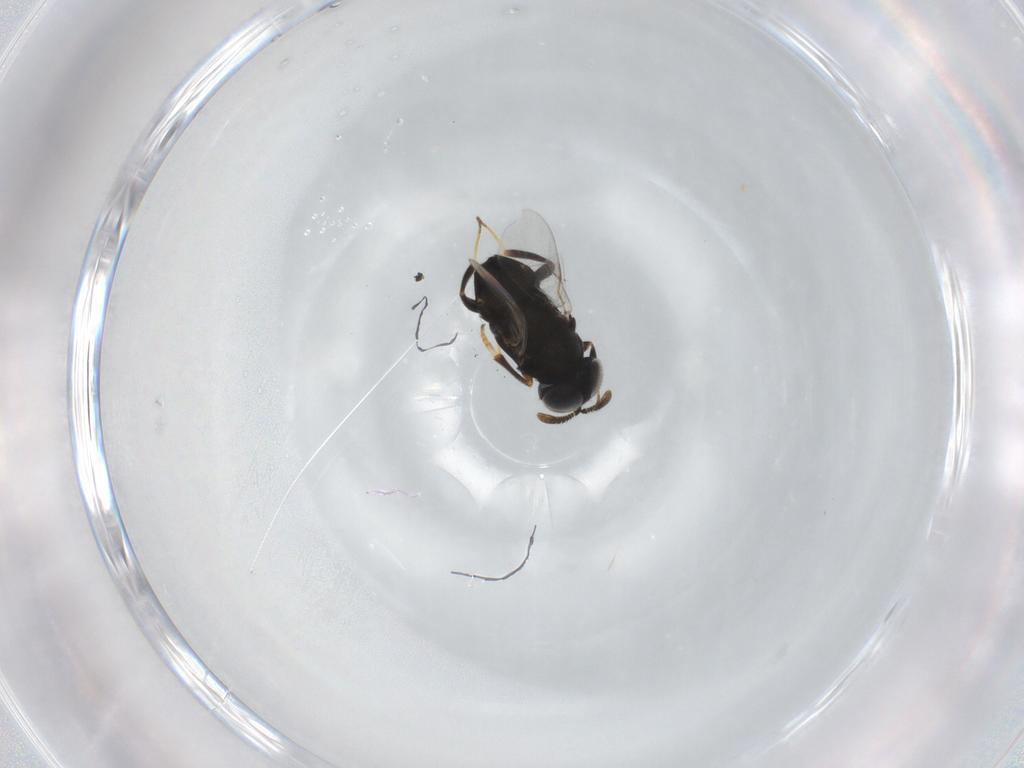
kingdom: Animalia
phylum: Arthropoda
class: Insecta
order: Hymenoptera
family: Encyrtidae
